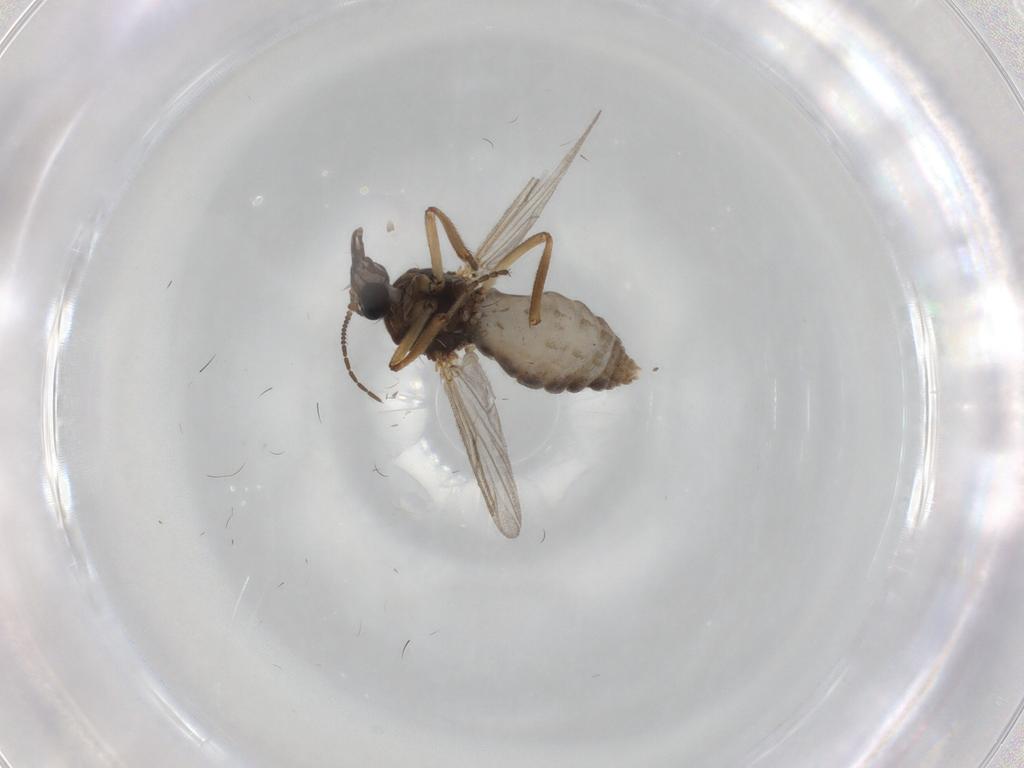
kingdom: Animalia
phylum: Arthropoda
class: Insecta
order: Diptera
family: Ceratopogonidae
